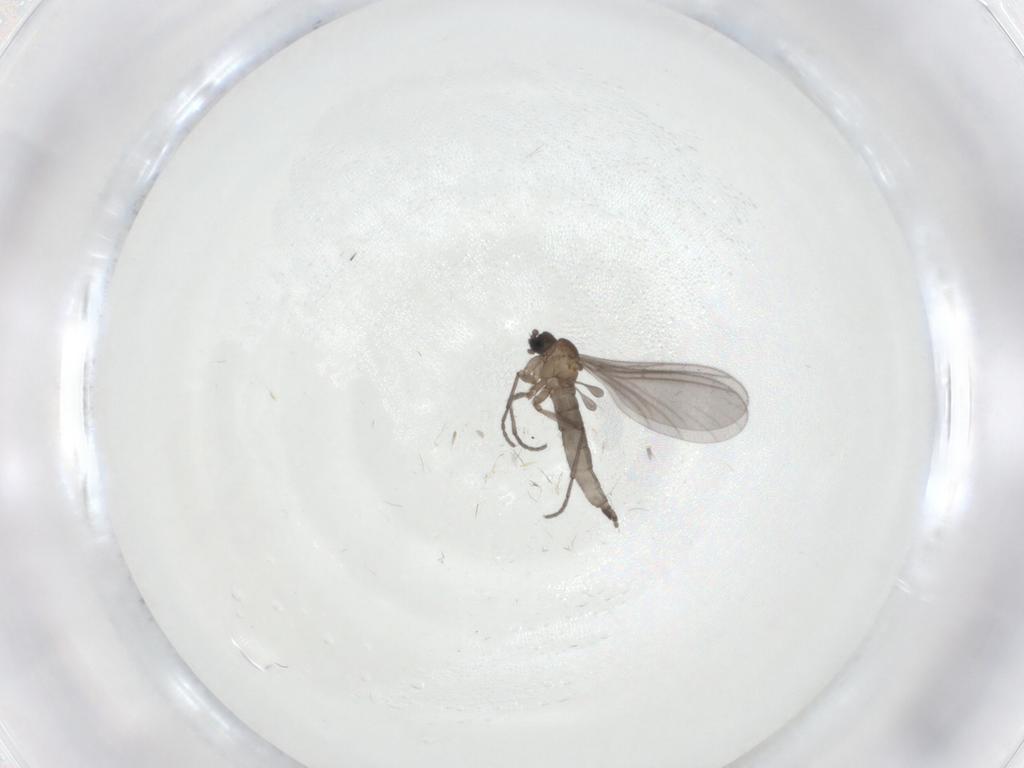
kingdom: Animalia
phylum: Arthropoda
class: Insecta
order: Diptera
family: Sciaridae
